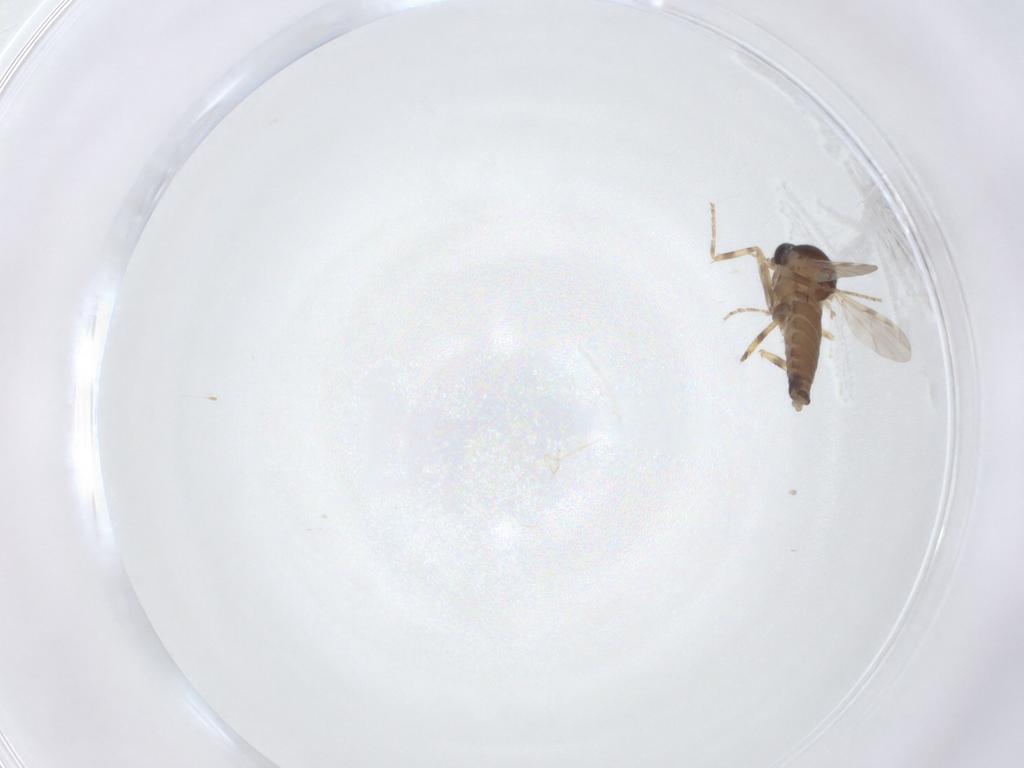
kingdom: Animalia
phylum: Arthropoda
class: Insecta
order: Diptera
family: Ceratopogonidae
